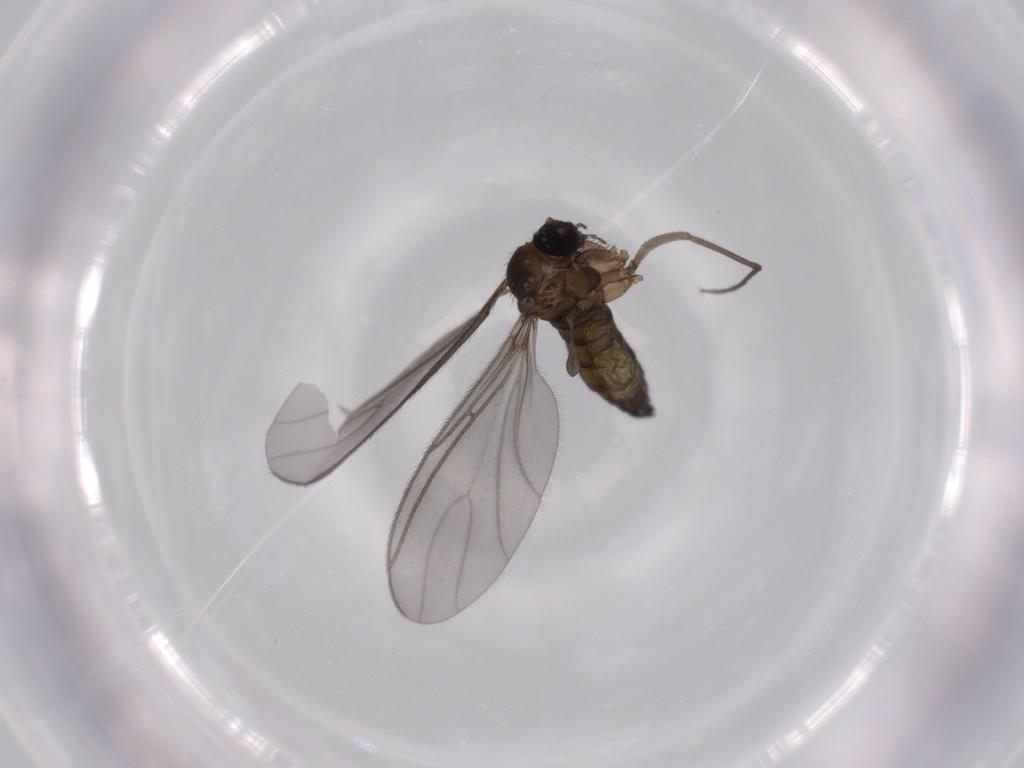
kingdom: Animalia
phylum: Arthropoda
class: Insecta
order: Diptera
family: Sciaridae
